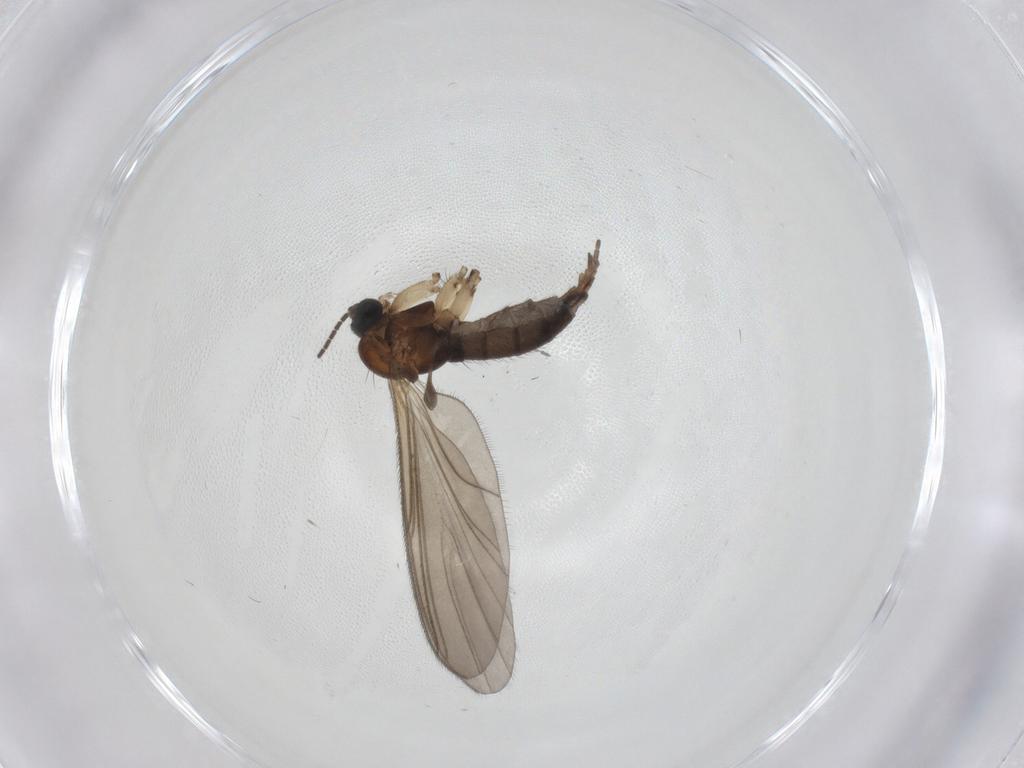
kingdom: Animalia
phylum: Arthropoda
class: Insecta
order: Diptera
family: Sciaridae
